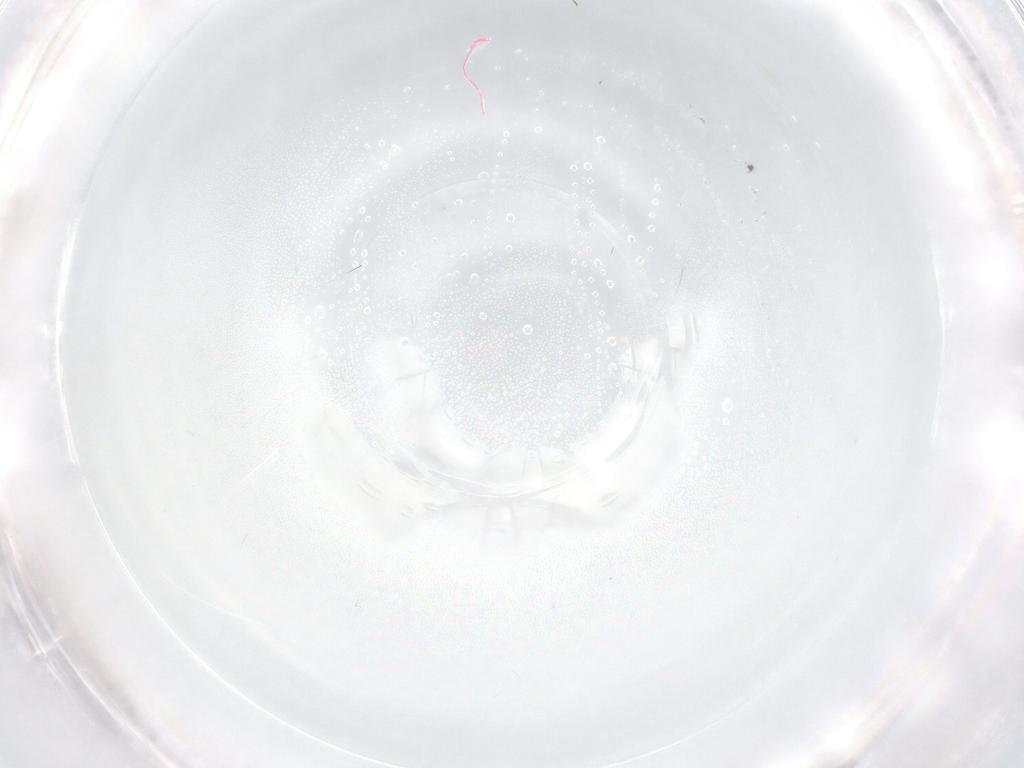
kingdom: Animalia
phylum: Arthropoda
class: Insecta
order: Hymenoptera
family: Scelionidae
